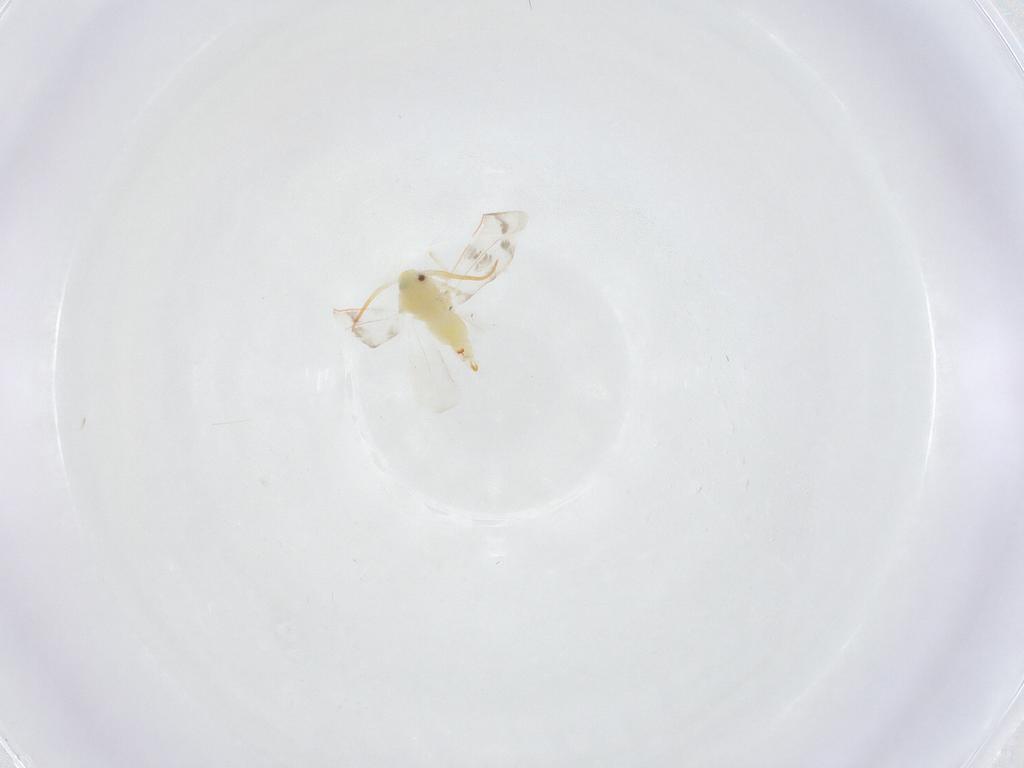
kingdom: Animalia
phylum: Arthropoda
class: Insecta
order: Hemiptera
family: Aleyrodidae
